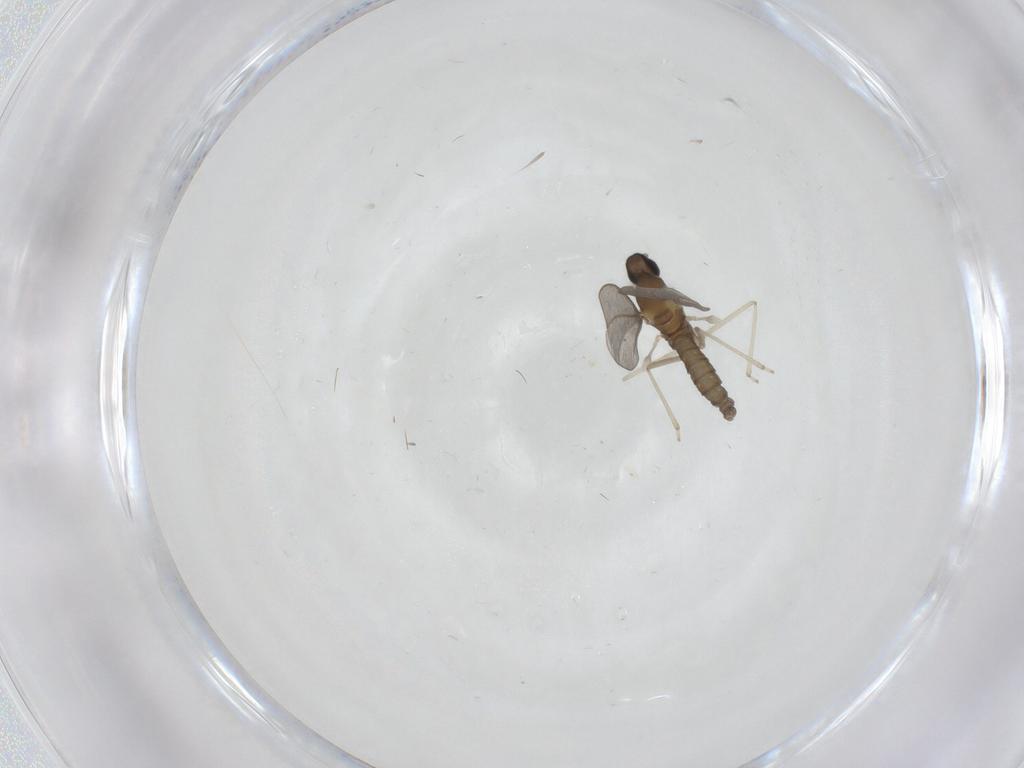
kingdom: Animalia
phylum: Arthropoda
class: Insecta
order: Diptera
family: Cecidomyiidae
